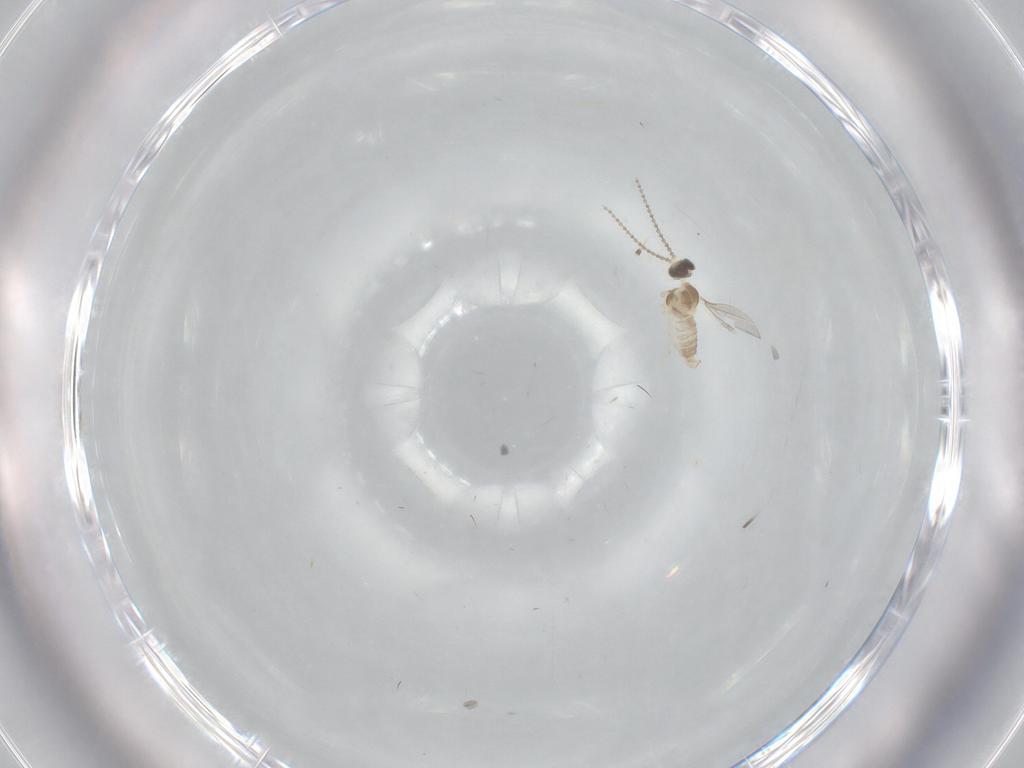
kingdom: Animalia
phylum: Arthropoda
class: Insecta
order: Diptera
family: Cecidomyiidae
